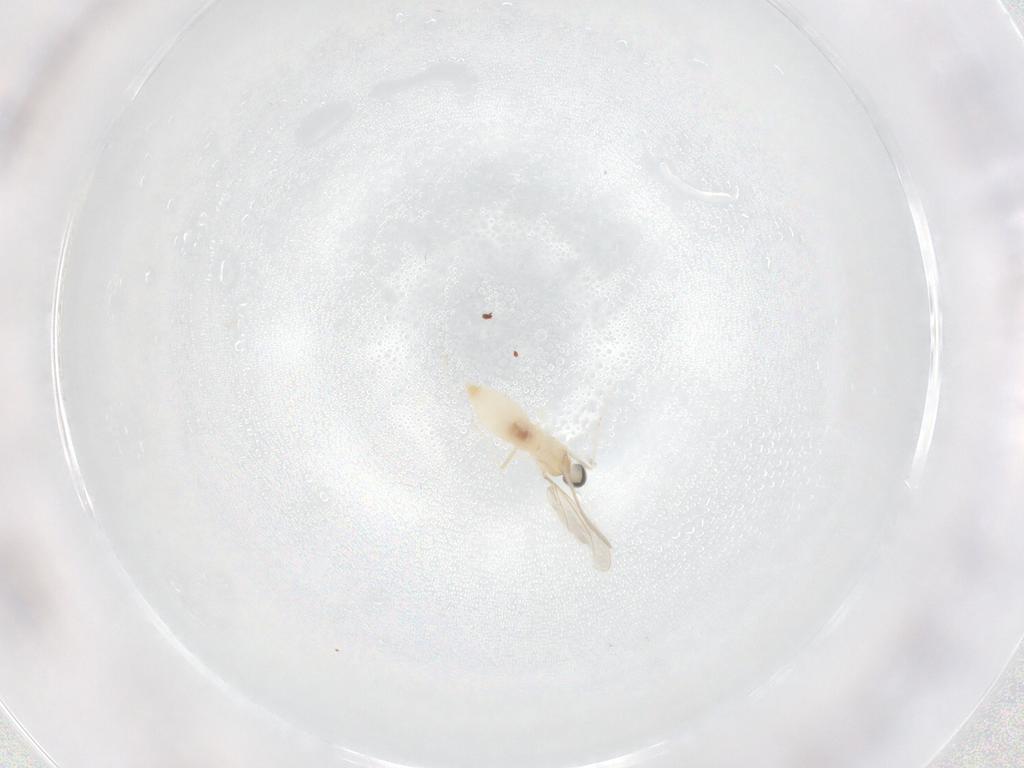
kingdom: Animalia
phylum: Arthropoda
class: Insecta
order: Diptera
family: Cecidomyiidae
